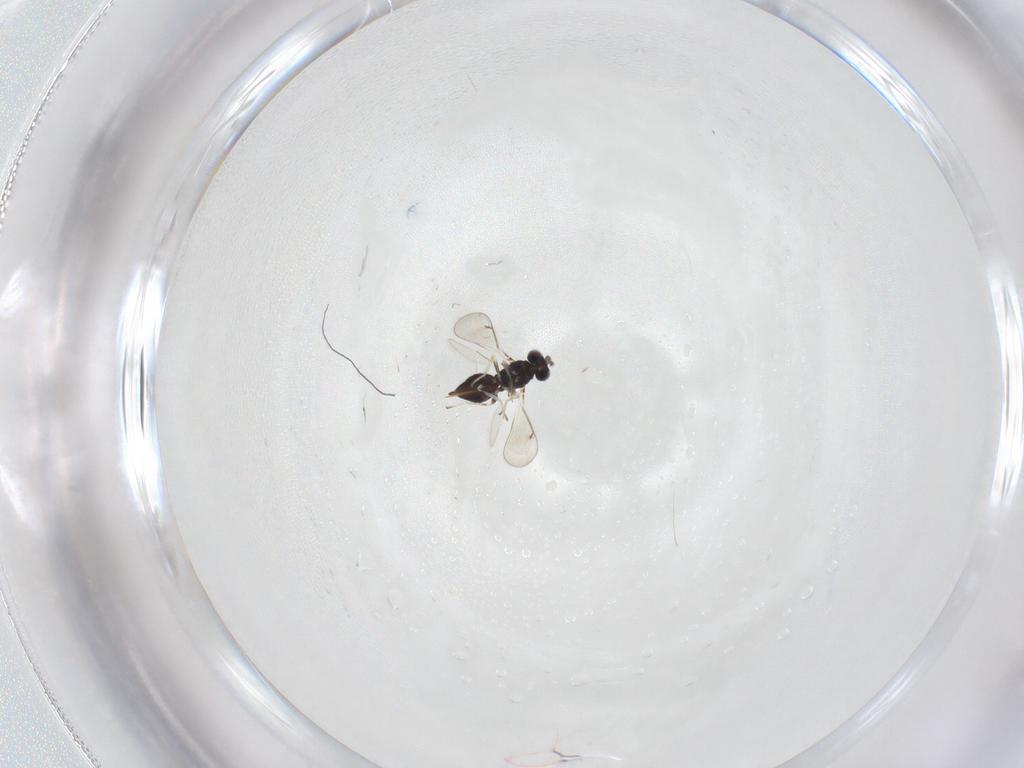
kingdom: Animalia
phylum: Arthropoda
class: Insecta
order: Hymenoptera
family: Eulophidae
